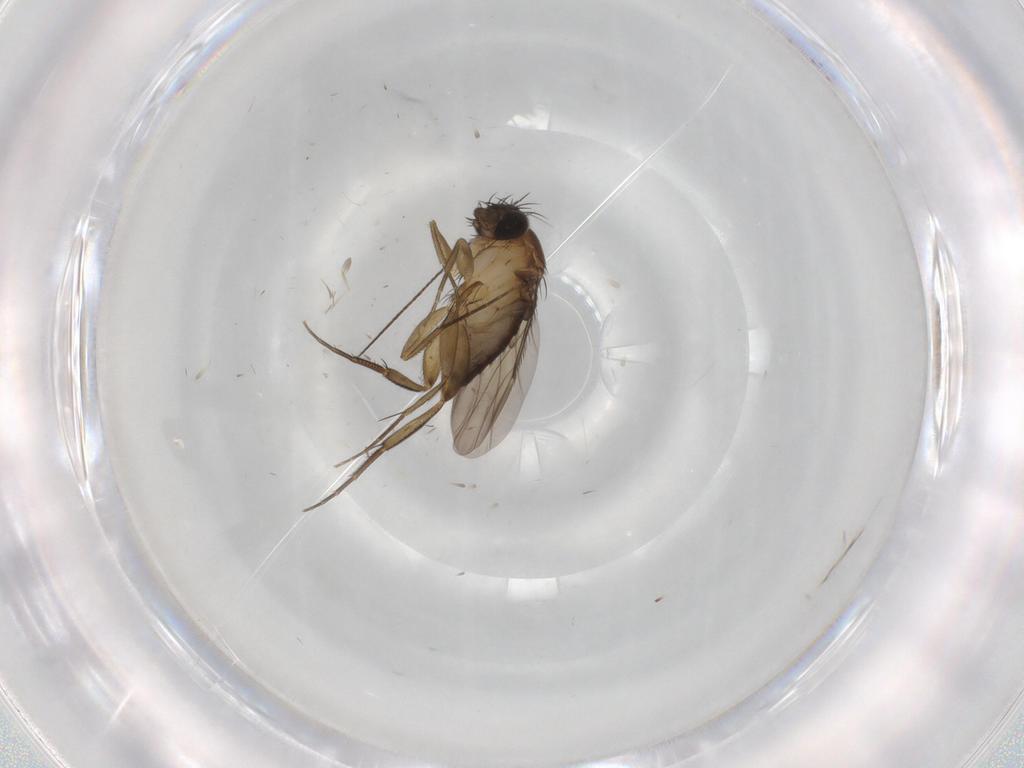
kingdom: Animalia
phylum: Arthropoda
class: Insecta
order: Diptera
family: Phoridae
